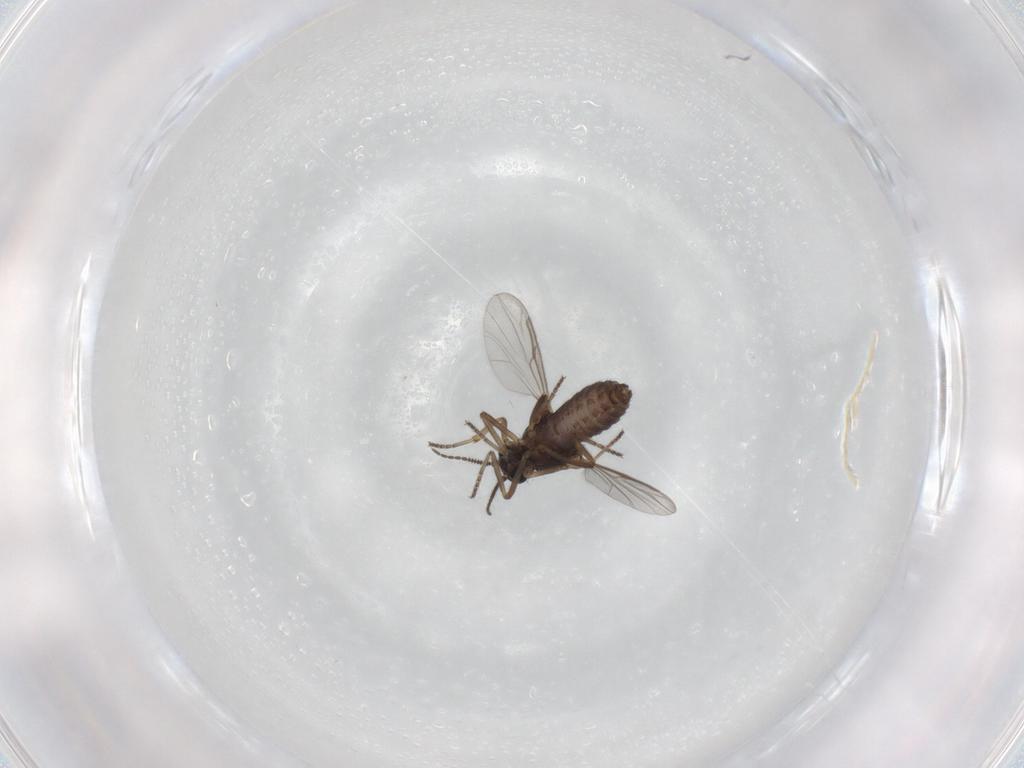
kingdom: Animalia
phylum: Arthropoda
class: Insecta
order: Diptera
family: Ceratopogonidae
